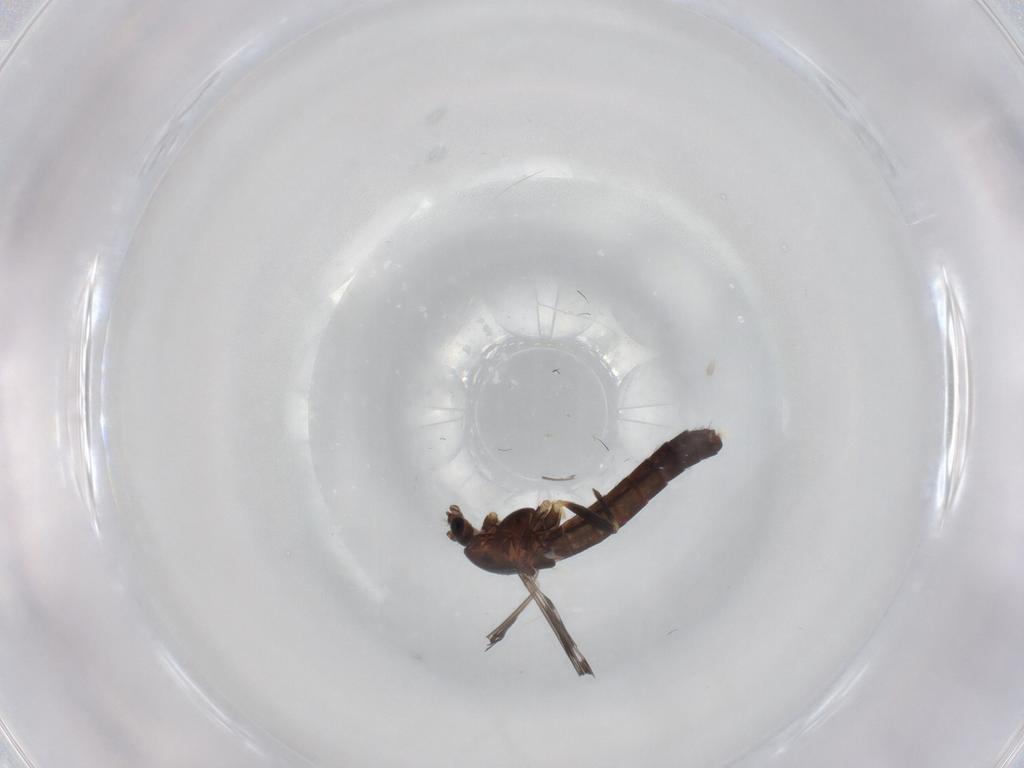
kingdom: Animalia
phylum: Arthropoda
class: Insecta
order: Diptera
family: Chironomidae
